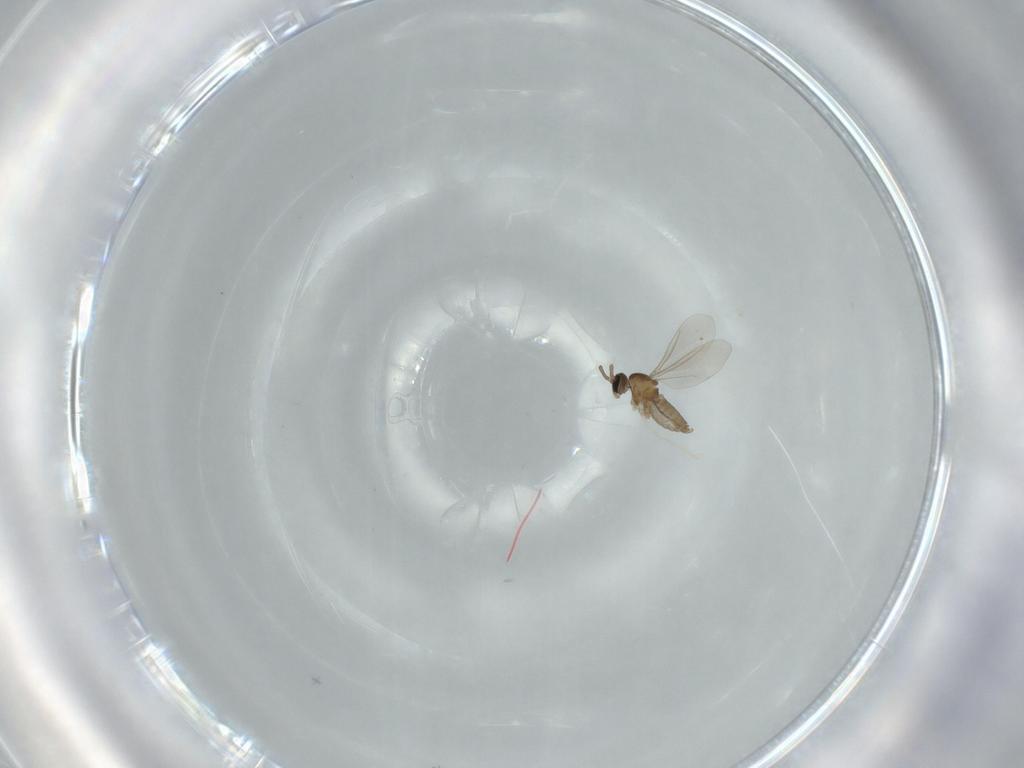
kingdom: Animalia
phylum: Arthropoda
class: Insecta
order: Diptera
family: Cecidomyiidae
